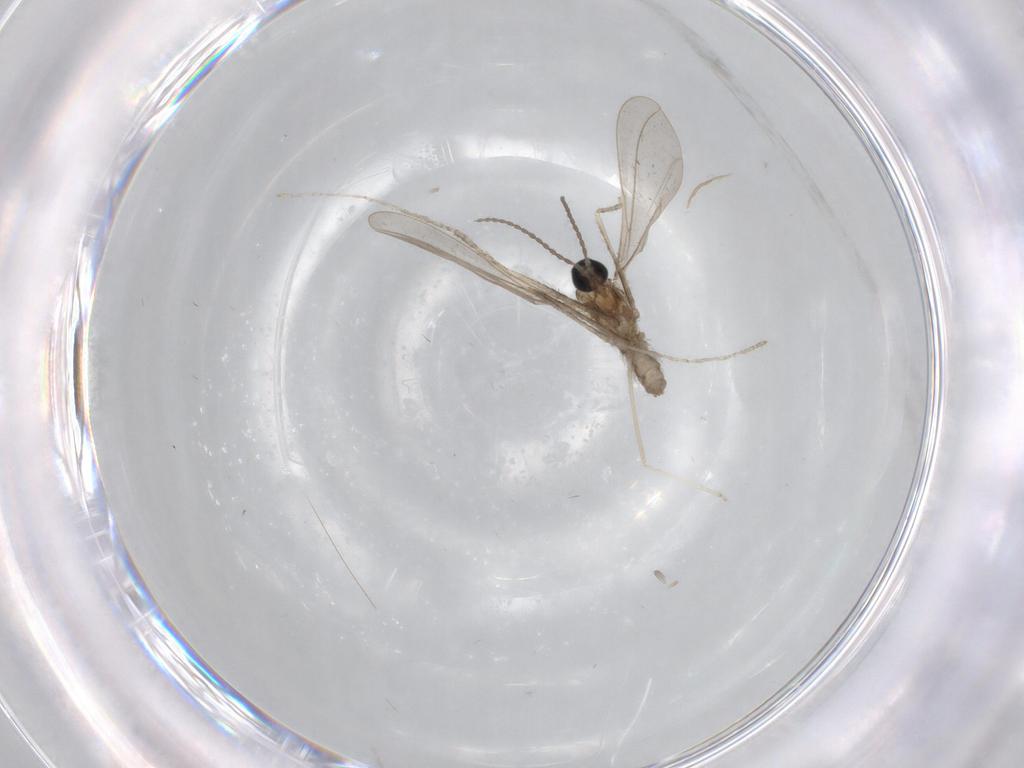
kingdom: Animalia
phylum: Arthropoda
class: Insecta
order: Diptera
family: Cecidomyiidae
